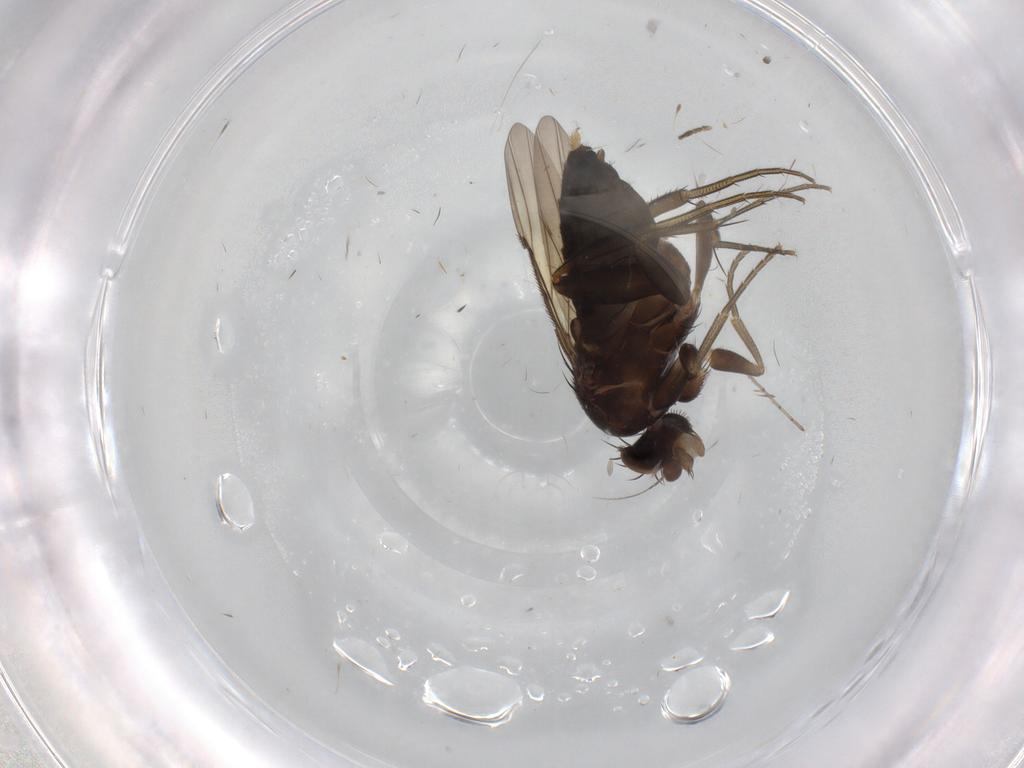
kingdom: Animalia
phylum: Arthropoda
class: Insecta
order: Diptera
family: Phoridae
